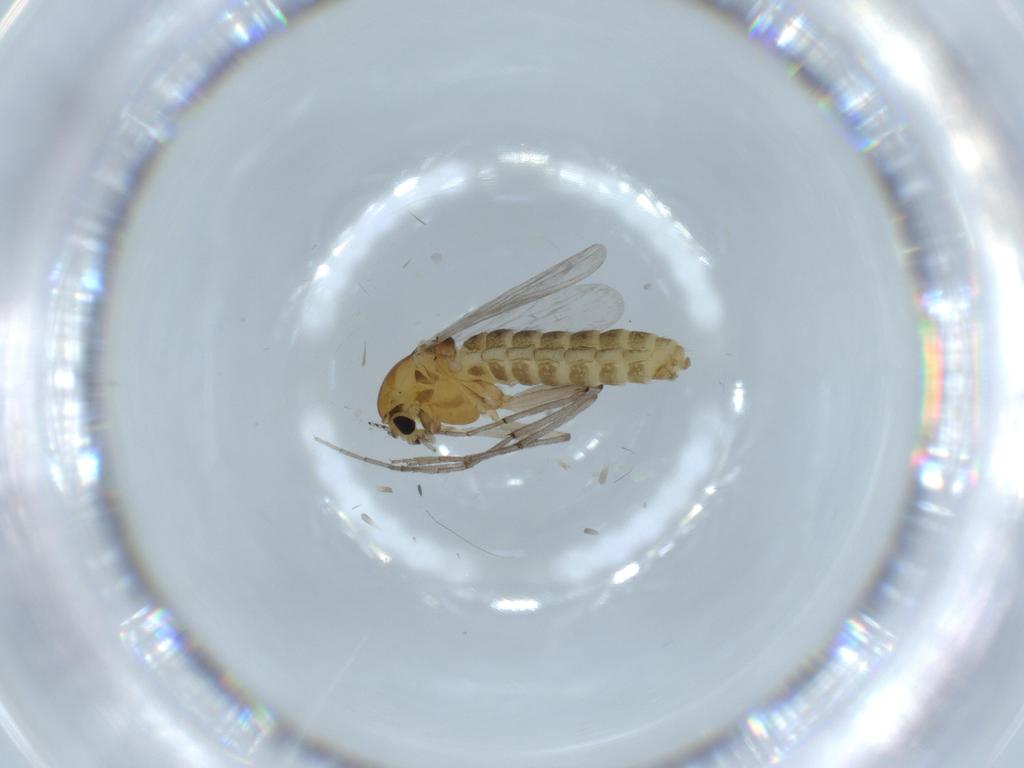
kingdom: Animalia
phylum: Arthropoda
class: Insecta
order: Diptera
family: Chironomidae
